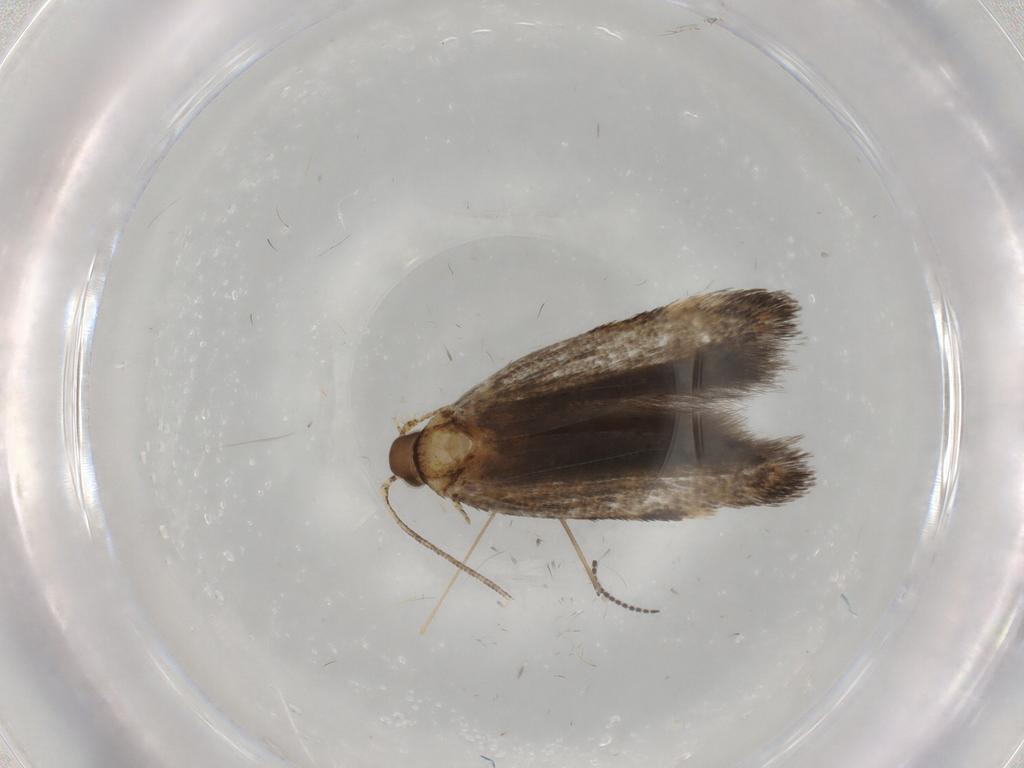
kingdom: Animalia
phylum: Arthropoda
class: Insecta
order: Lepidoptera
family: Oecophoridae
